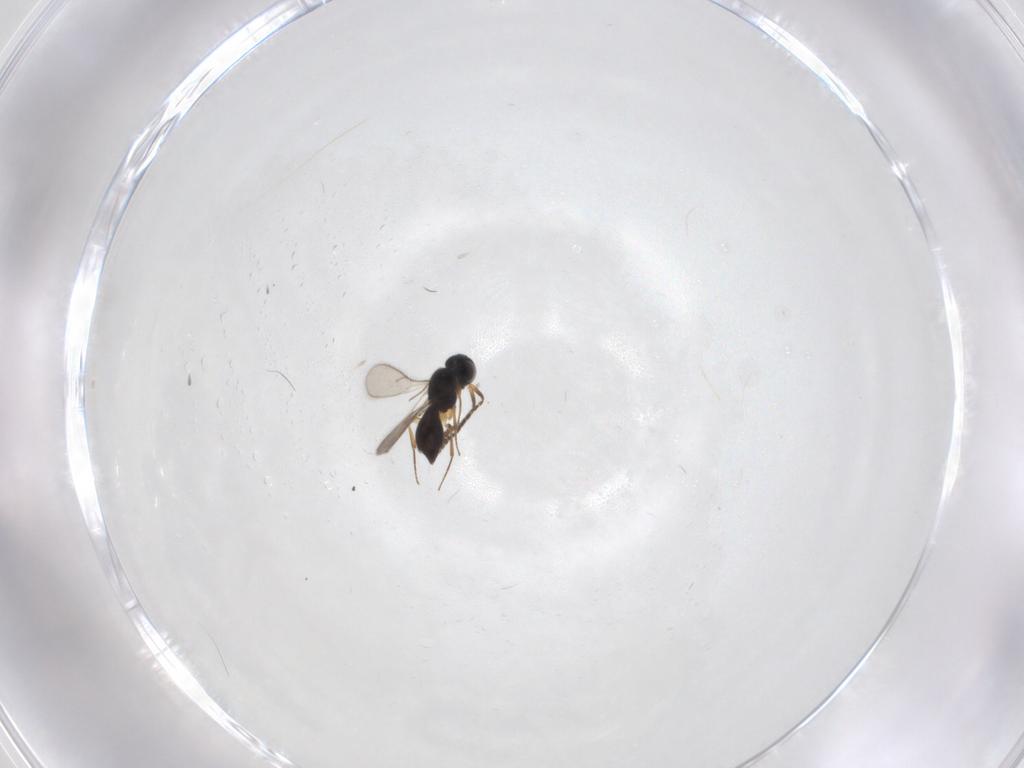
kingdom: Animalia
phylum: Arthropoda
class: Insecta
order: Hymenoptera
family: Scelionidae
